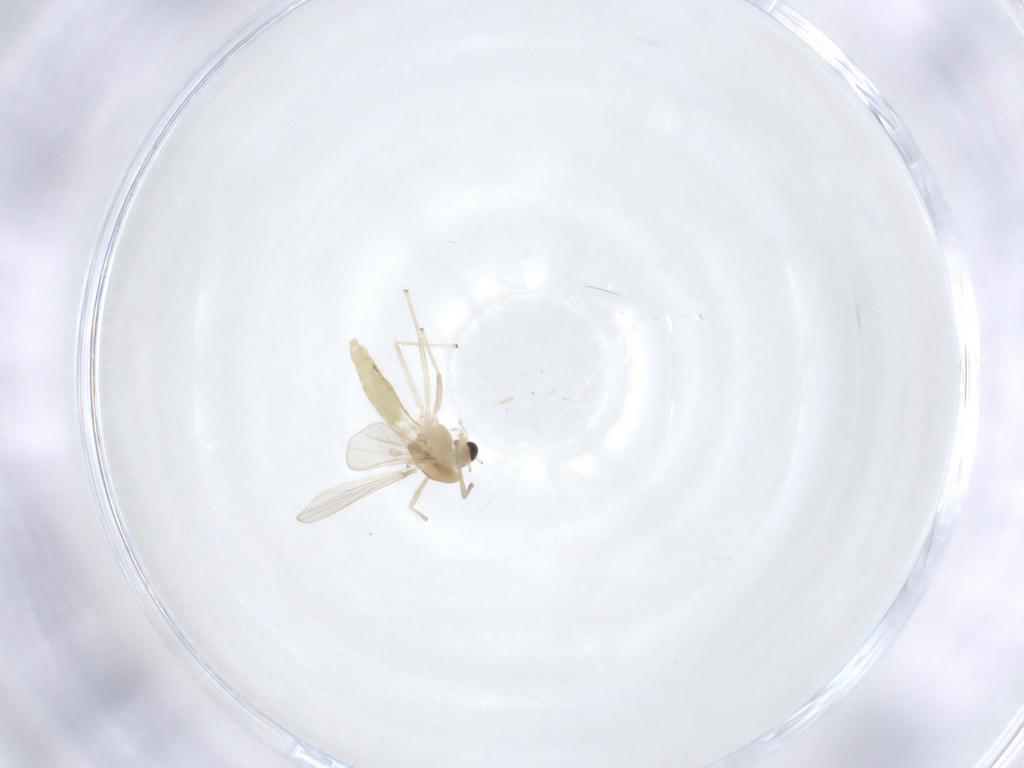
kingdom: Animalia
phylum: Arthropoda
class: Insecta
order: Diptera
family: Chironomidae
